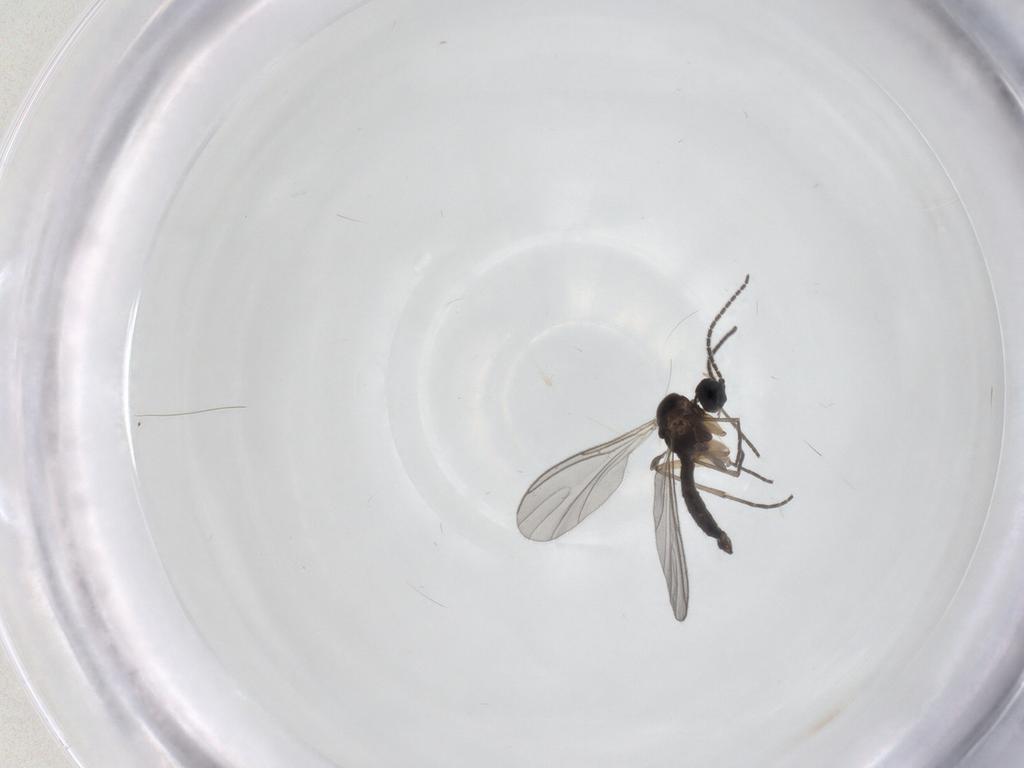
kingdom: Animalia
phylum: Arthropoda
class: Insecta
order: Diptera
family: Sciaridae
